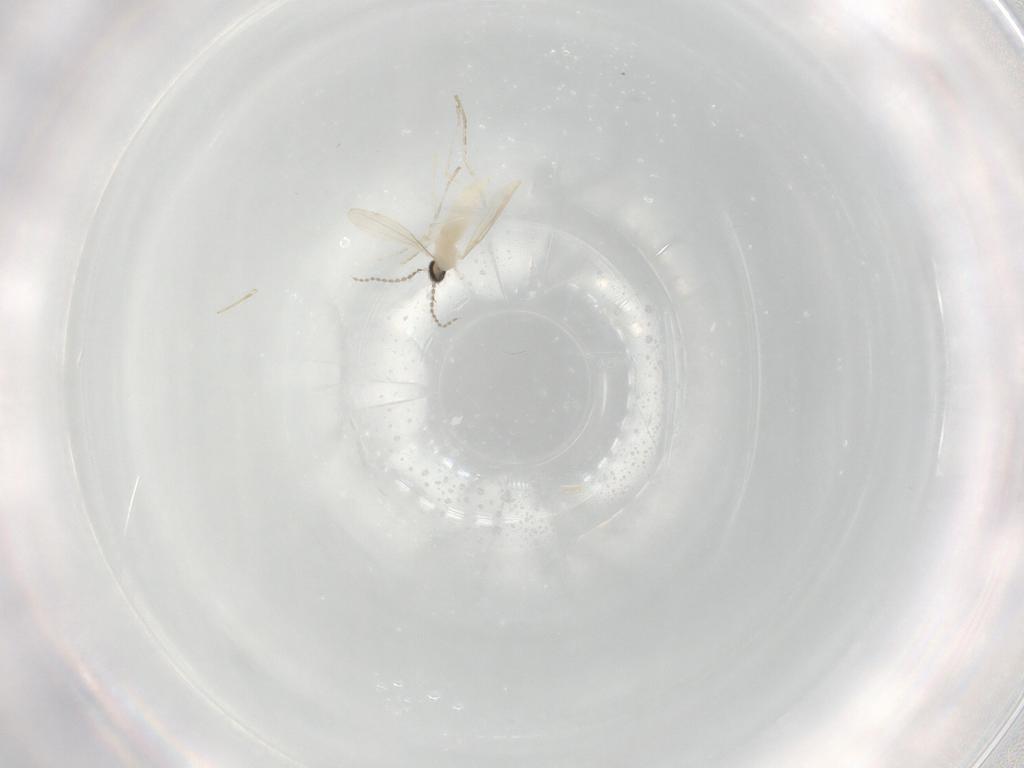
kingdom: Animalia
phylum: Arthropoda
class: Insecta
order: Diptera
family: Cecidomyiidae
